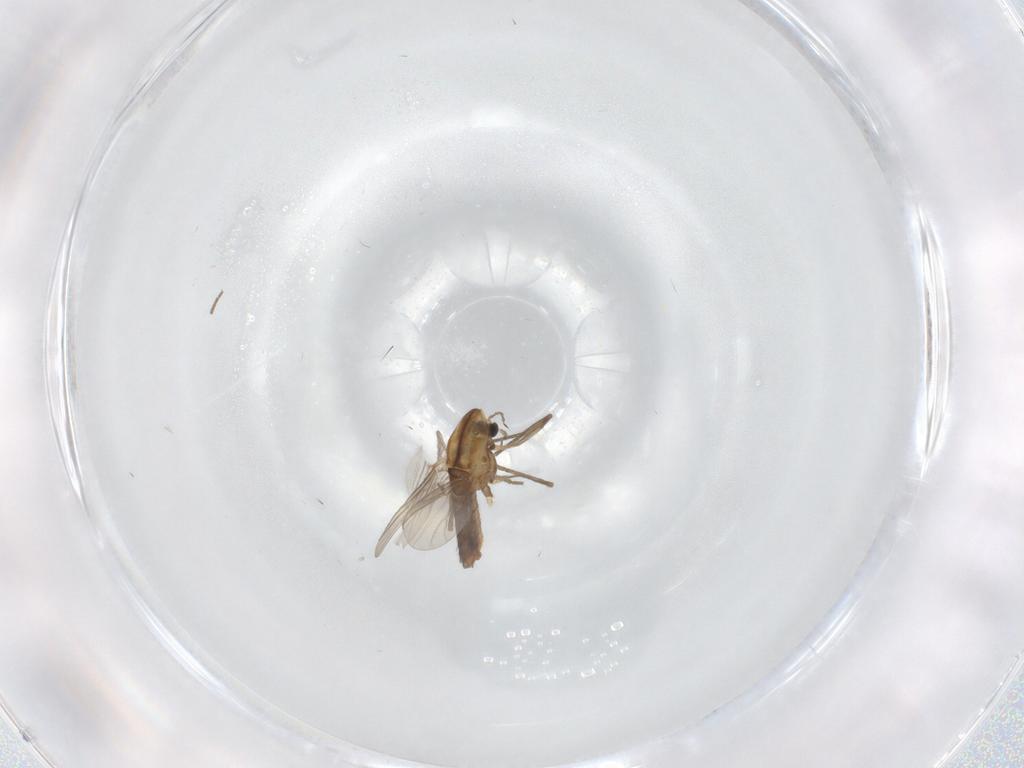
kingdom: Animalia
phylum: Arthropoda
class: Insecta
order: Diptera
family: Chironomidae
